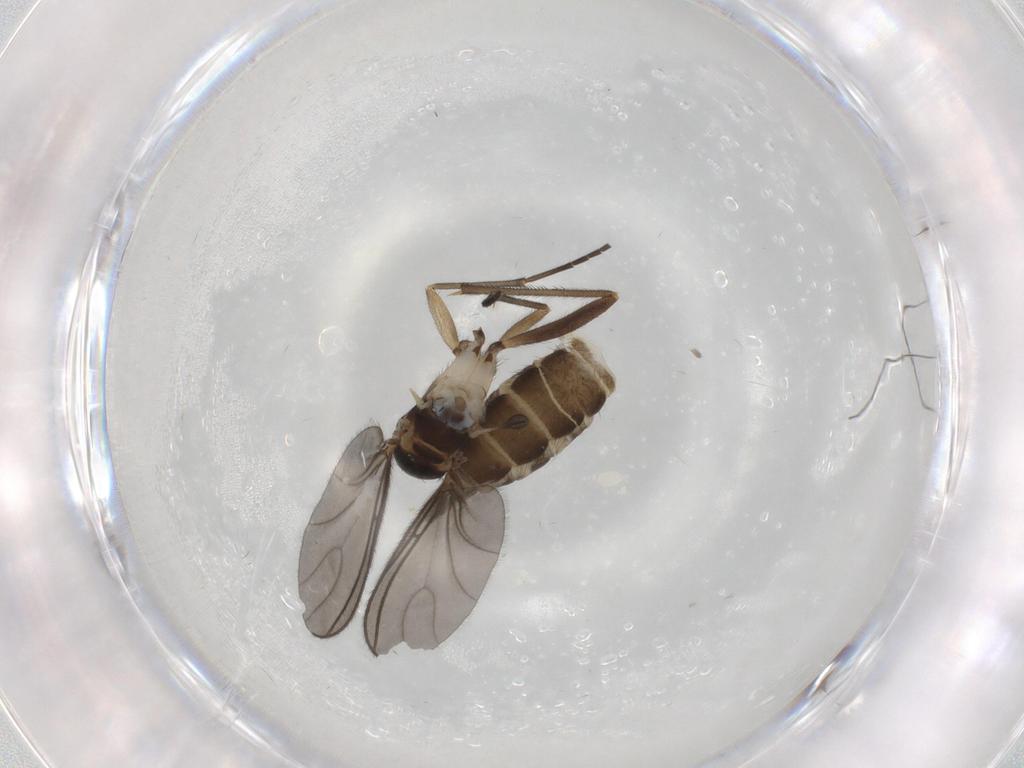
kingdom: Animalia
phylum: Arthropoda
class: Insecta
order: Diptera
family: Sciaridae
